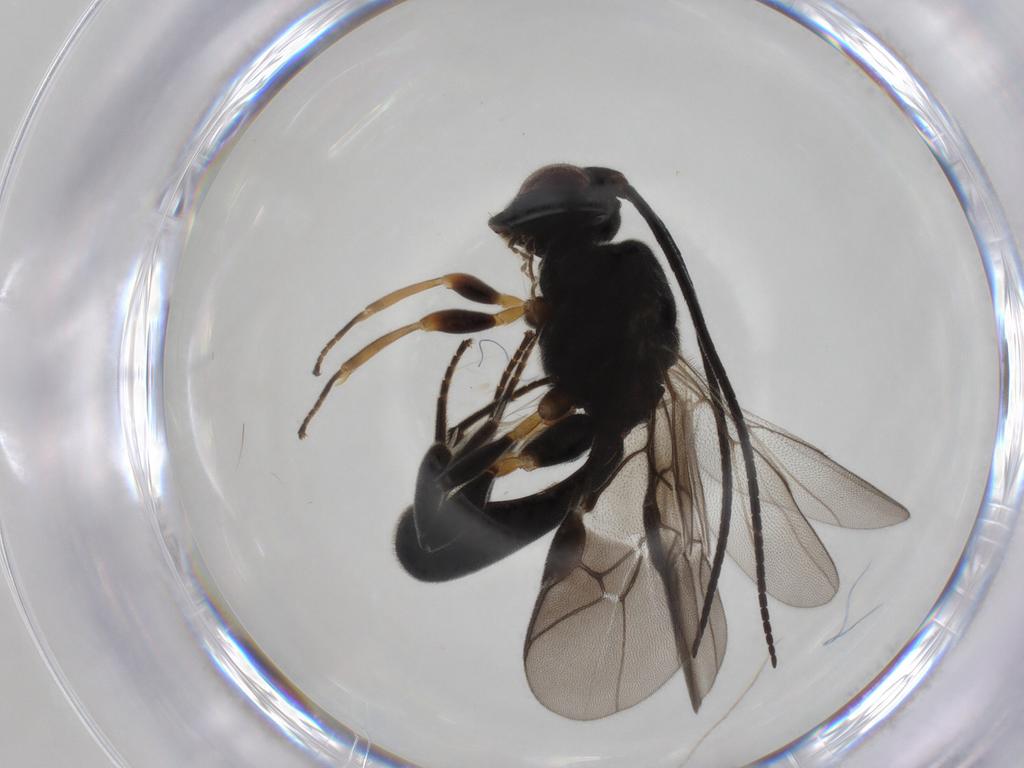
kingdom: Animalia
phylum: Arthropoda
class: Insecta
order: Hymenoptera
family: Braconidae
